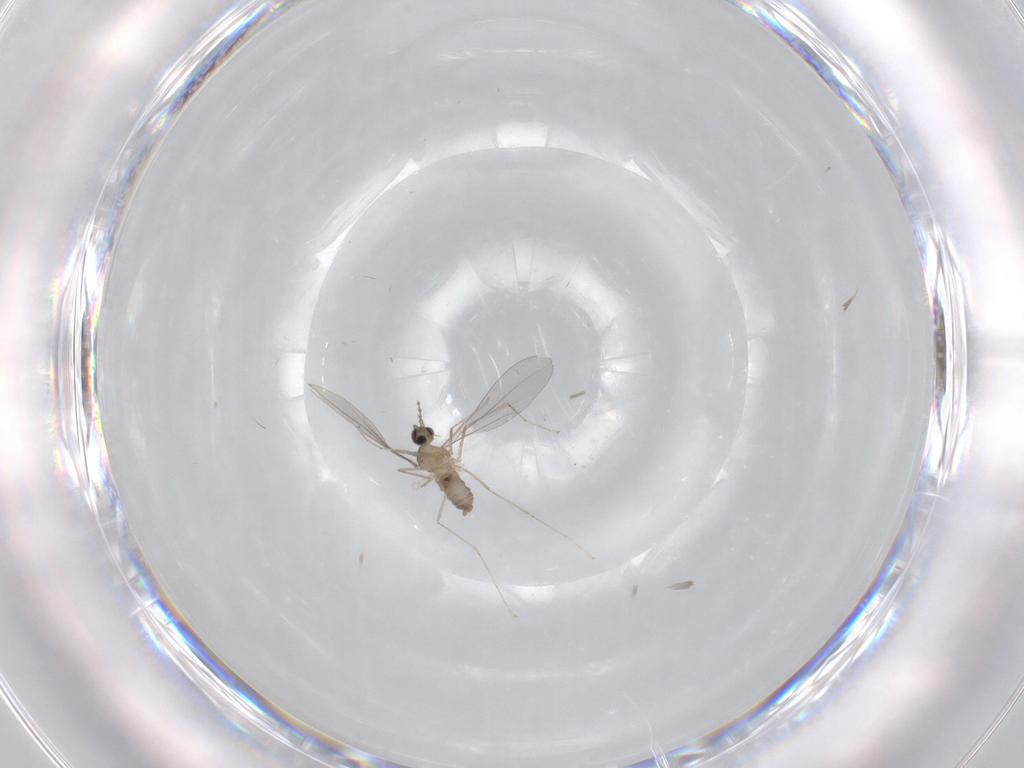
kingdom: Animalia
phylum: Arthropoda
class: Insecta
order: Diptera
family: Cecidomyiidae
